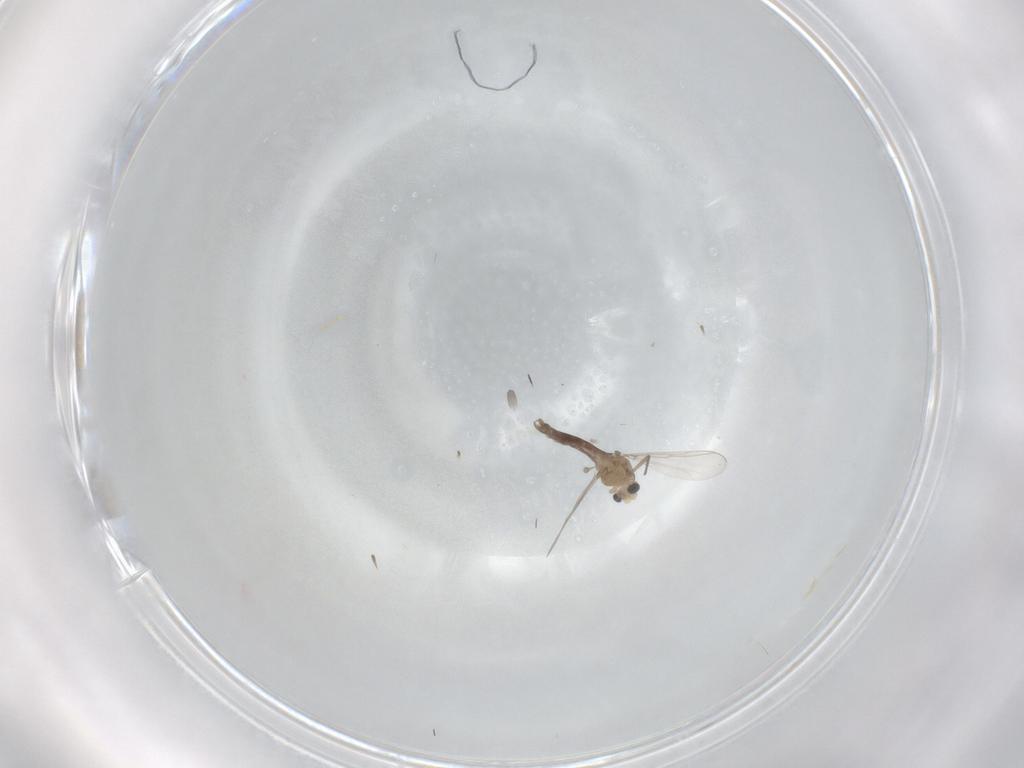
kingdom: Animalia
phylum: Arthropoda
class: Insecta
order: Diptera
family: Chironomidae
